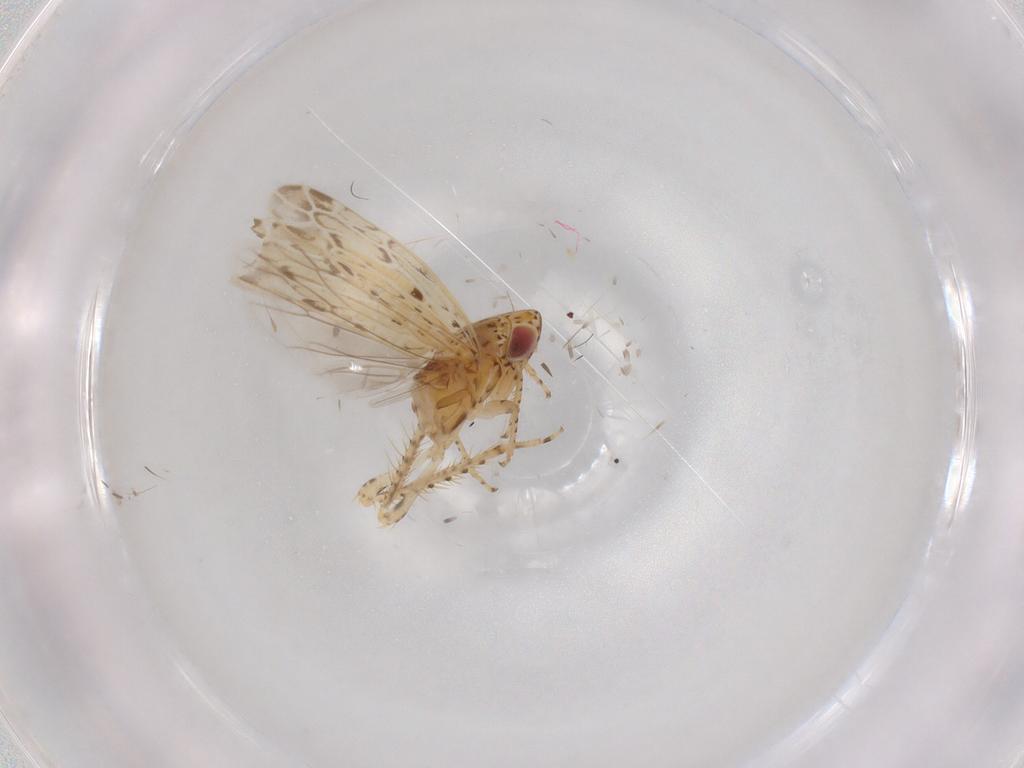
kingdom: Animalia
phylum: Arthropoda
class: Insecta
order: Hemiptera
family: Cicadellidae
